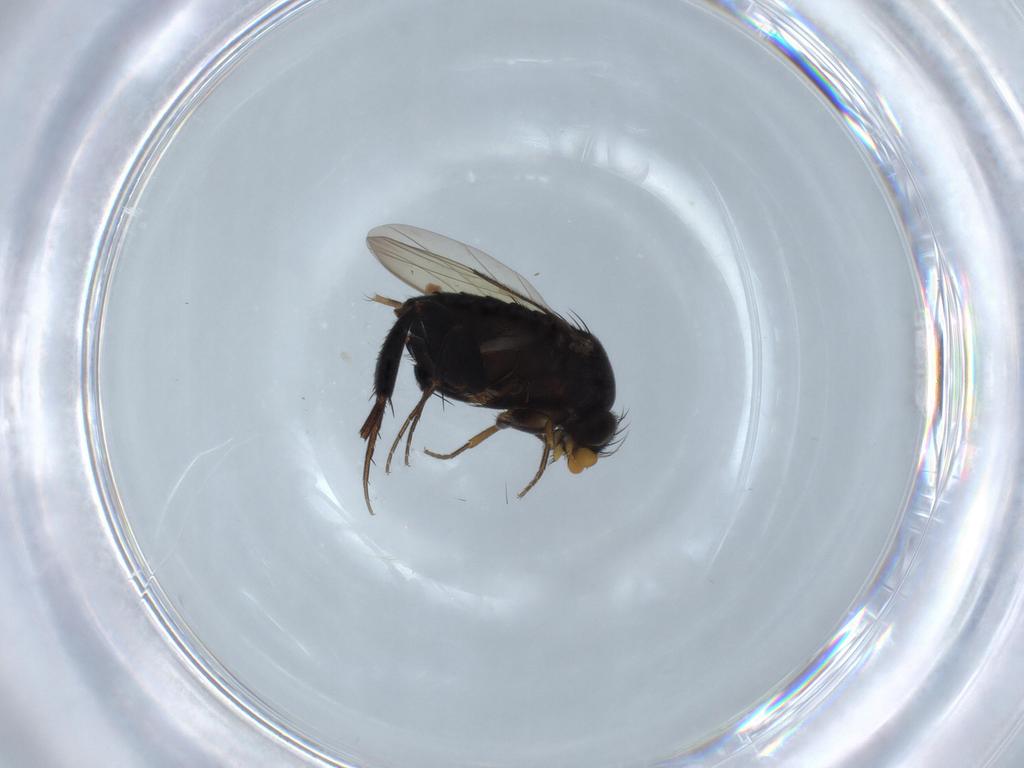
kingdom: Animalia
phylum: Arthropoda
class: Insecta
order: Diptera
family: Phoridae
